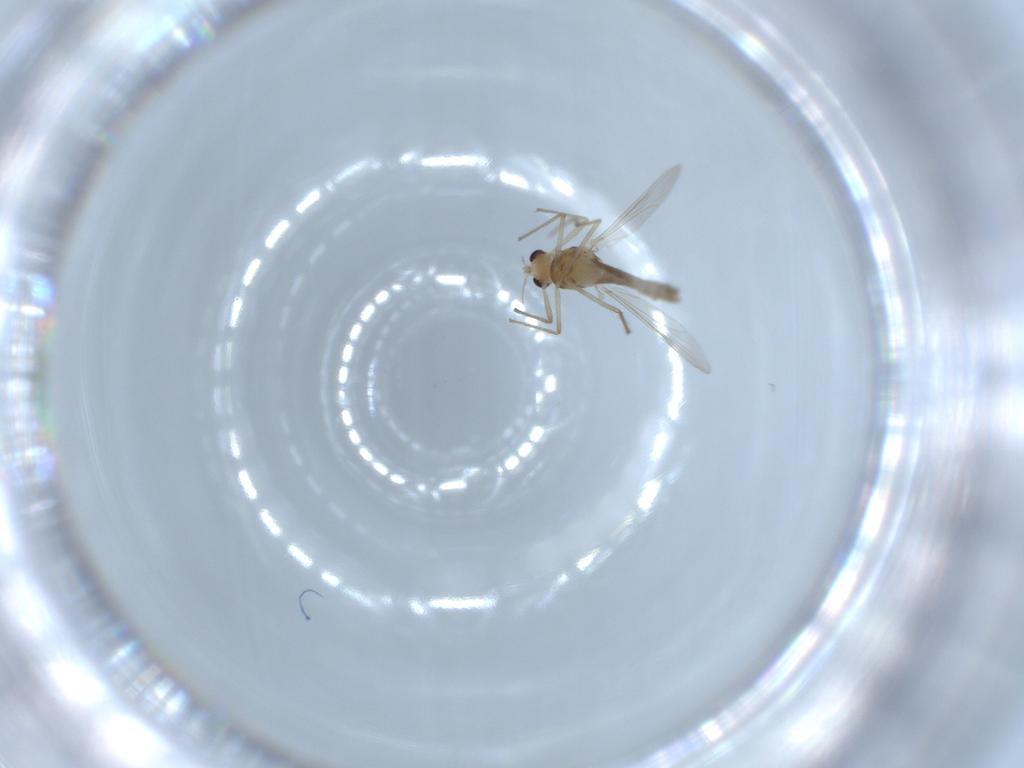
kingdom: Animalia
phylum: Arthropoda
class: Insecta
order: Diptera
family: Chironomidae
